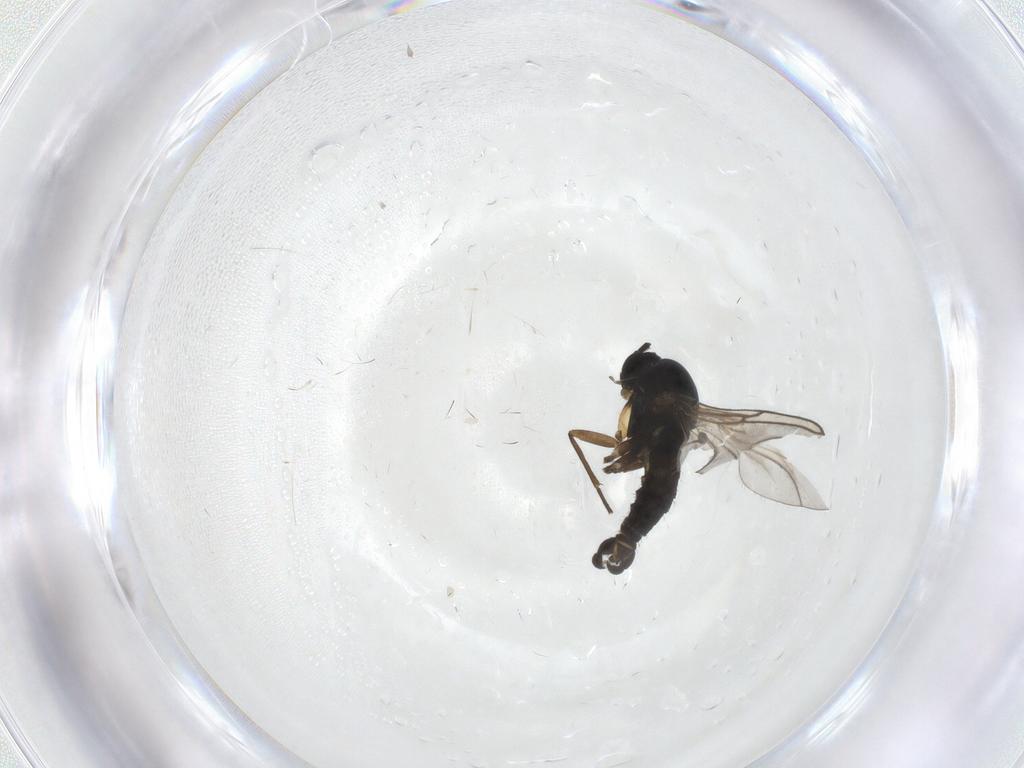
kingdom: Animalia
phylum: Arthropoda
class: Insecta
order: Diptera
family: Sciaridae
